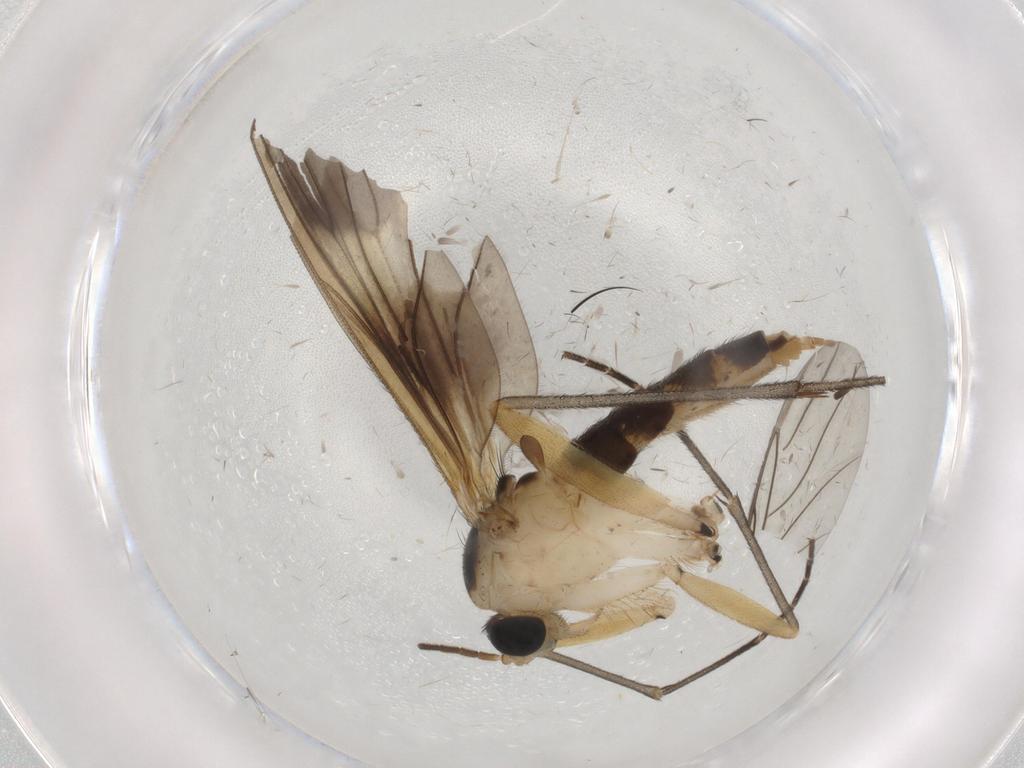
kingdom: Animalia
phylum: Arthropoda
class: Insecta
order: Diptera
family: Sciaridae
